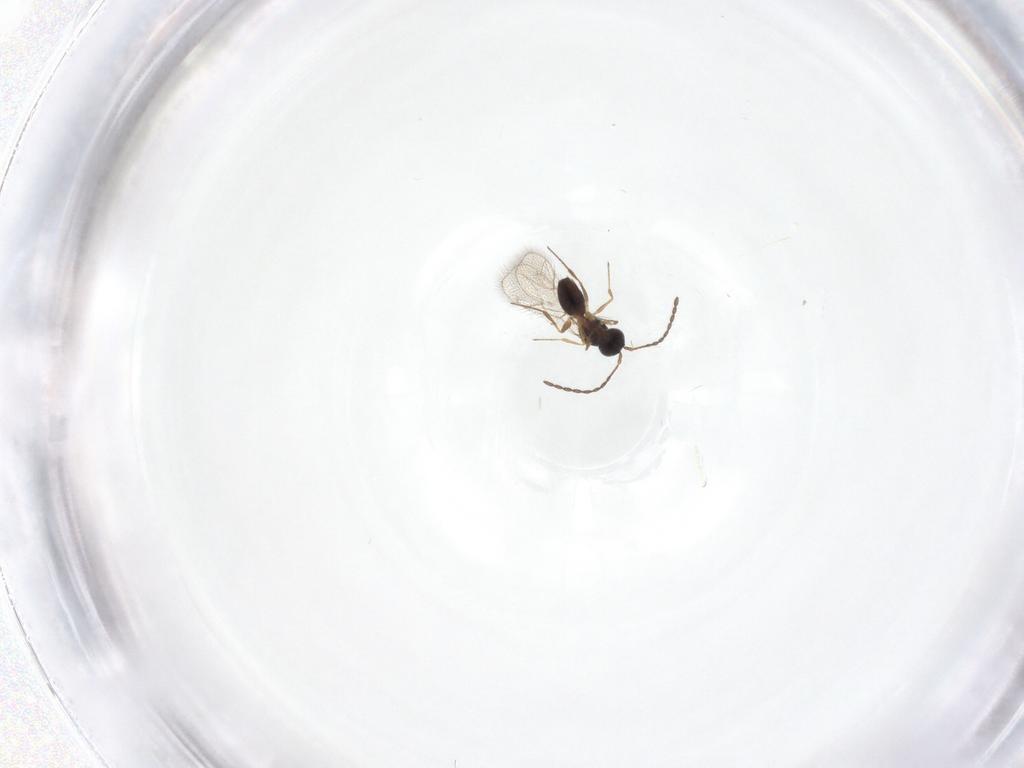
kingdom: Animalia
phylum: Arthropoda
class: Insecta
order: Hymenoptera
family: Figitidae
